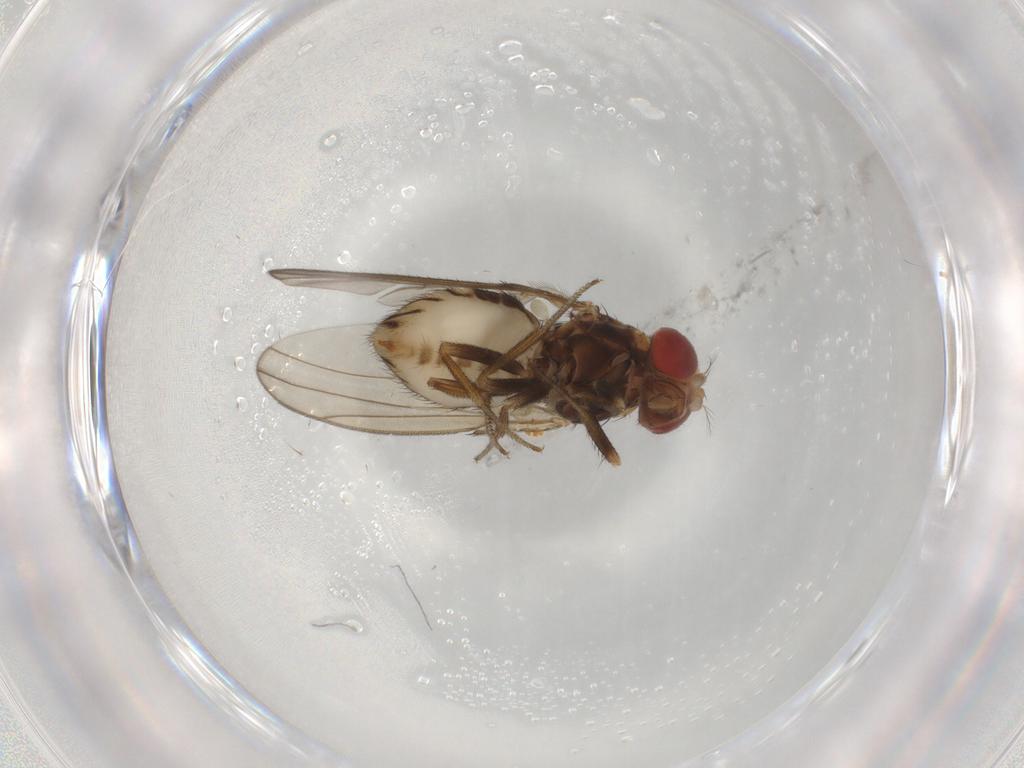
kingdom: Animalia
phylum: Arthropoda
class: Insecta
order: Diptera
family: Drosophilidae
